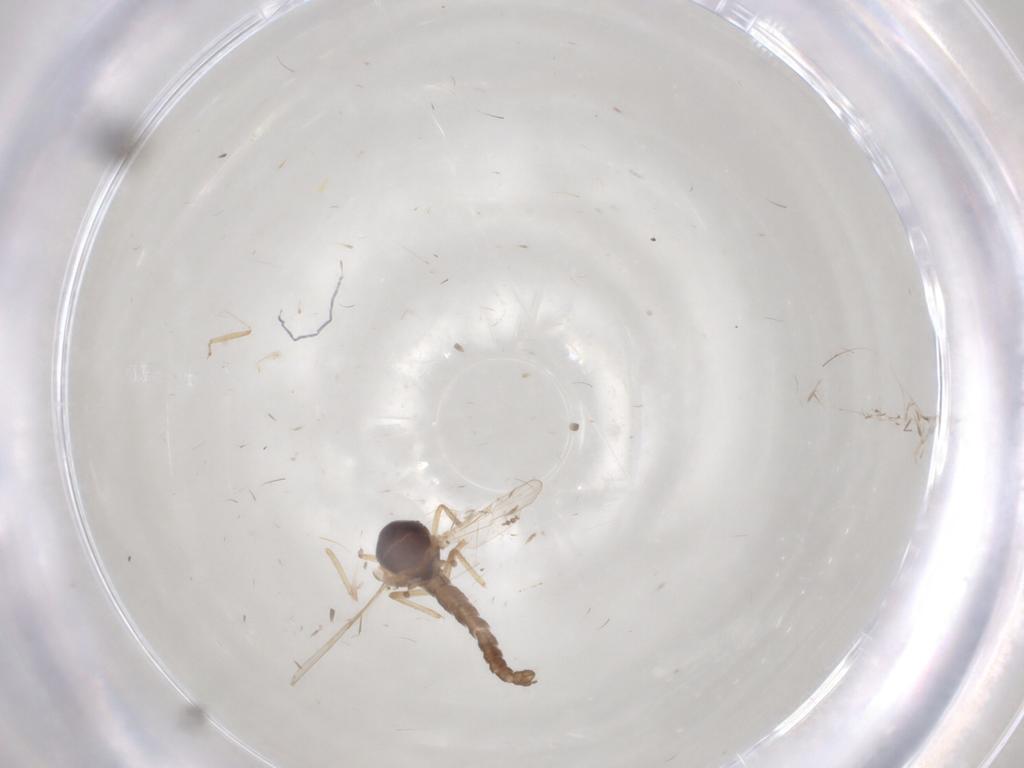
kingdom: Animalia
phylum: Arthropoda
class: Insecta
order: Diptera
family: Ceratopogonidae
